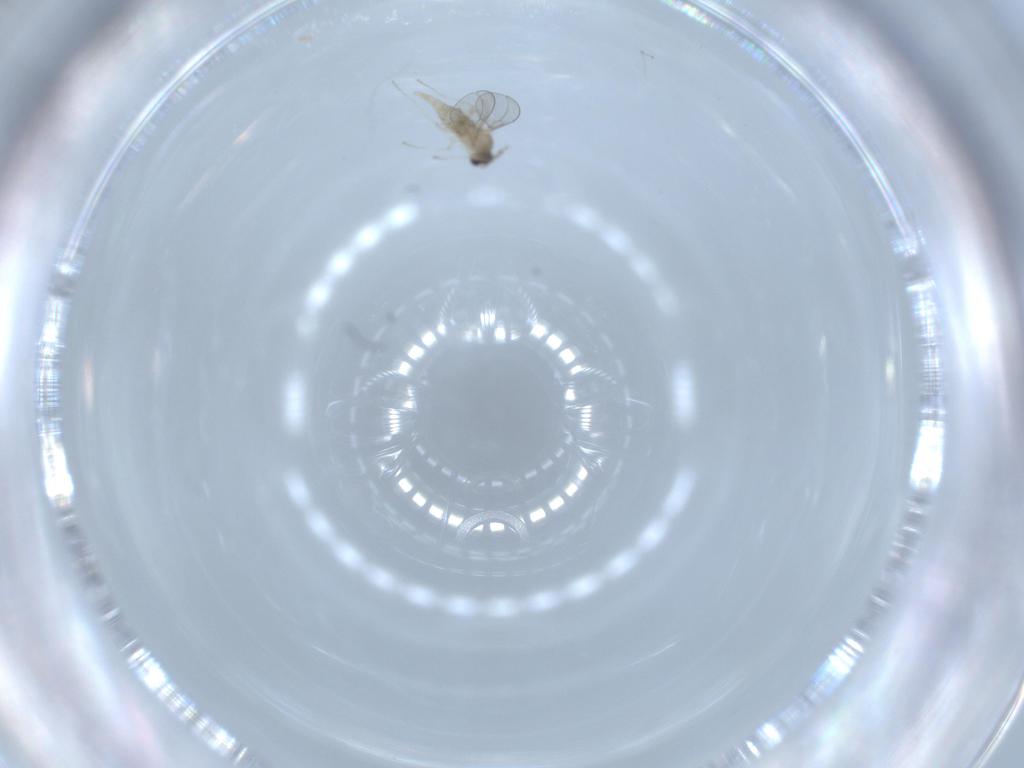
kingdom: Animalia
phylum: Arthropoda
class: Insecta
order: Diptera
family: Cecidomyiidae
